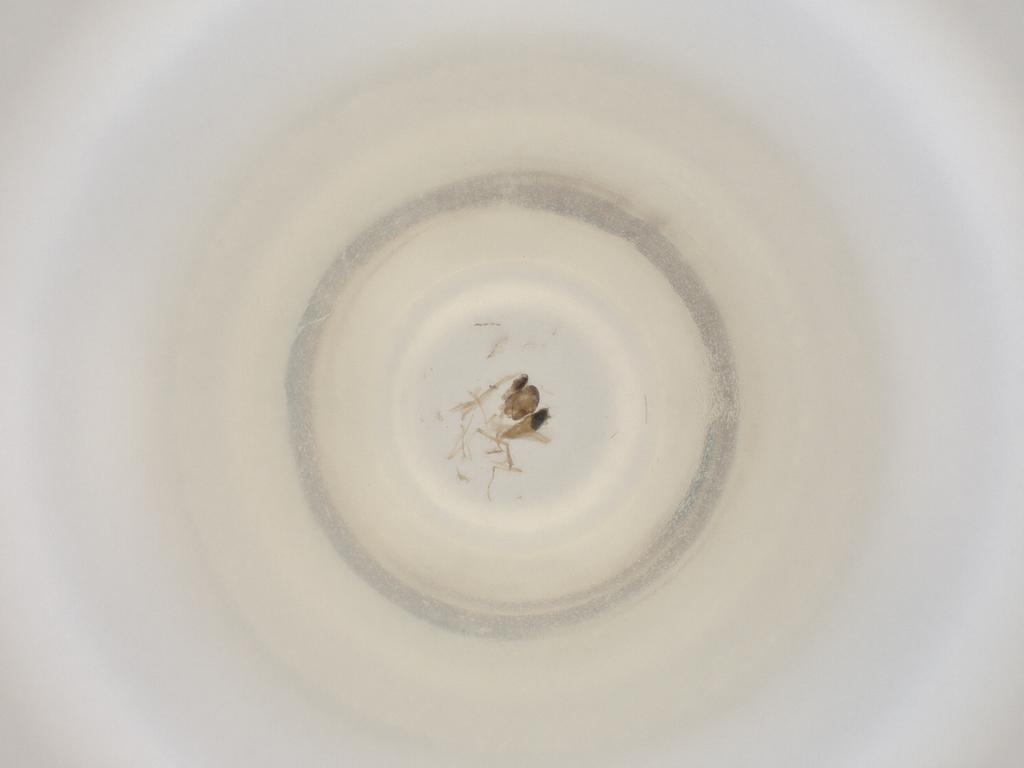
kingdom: Animalia
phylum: Arthropoda
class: Insecta
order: Diptera
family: Cecidomyiidae
